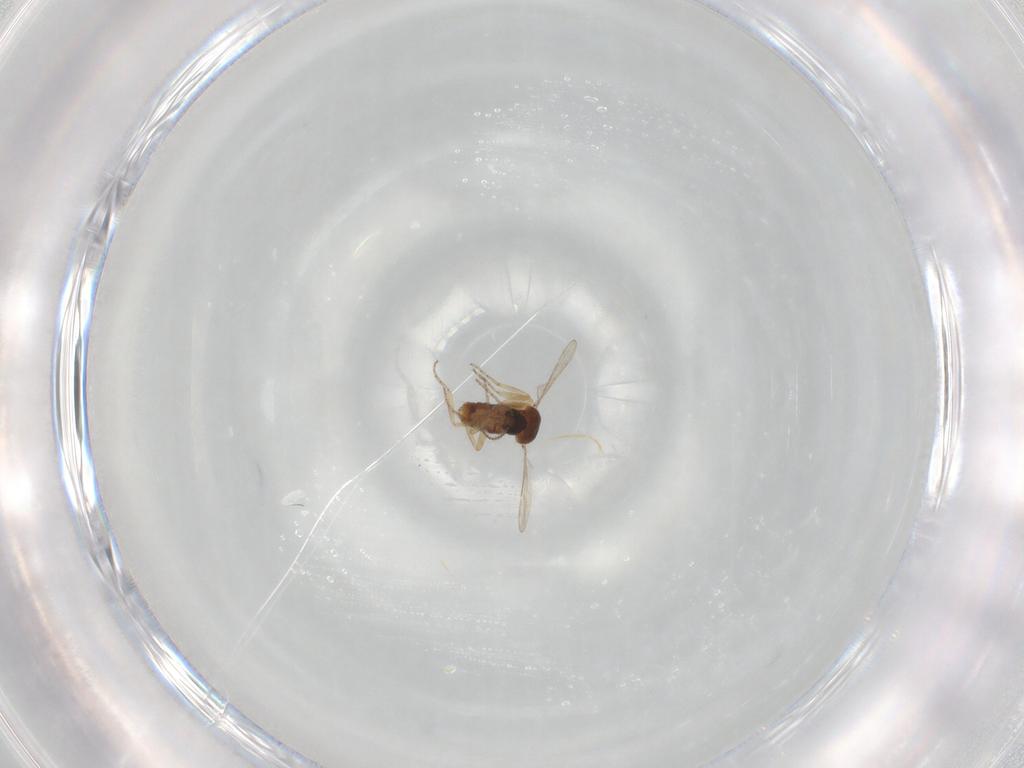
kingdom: Animalia
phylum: Arthropoda
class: Insecta
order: Diptera
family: Ceratopogonidae
